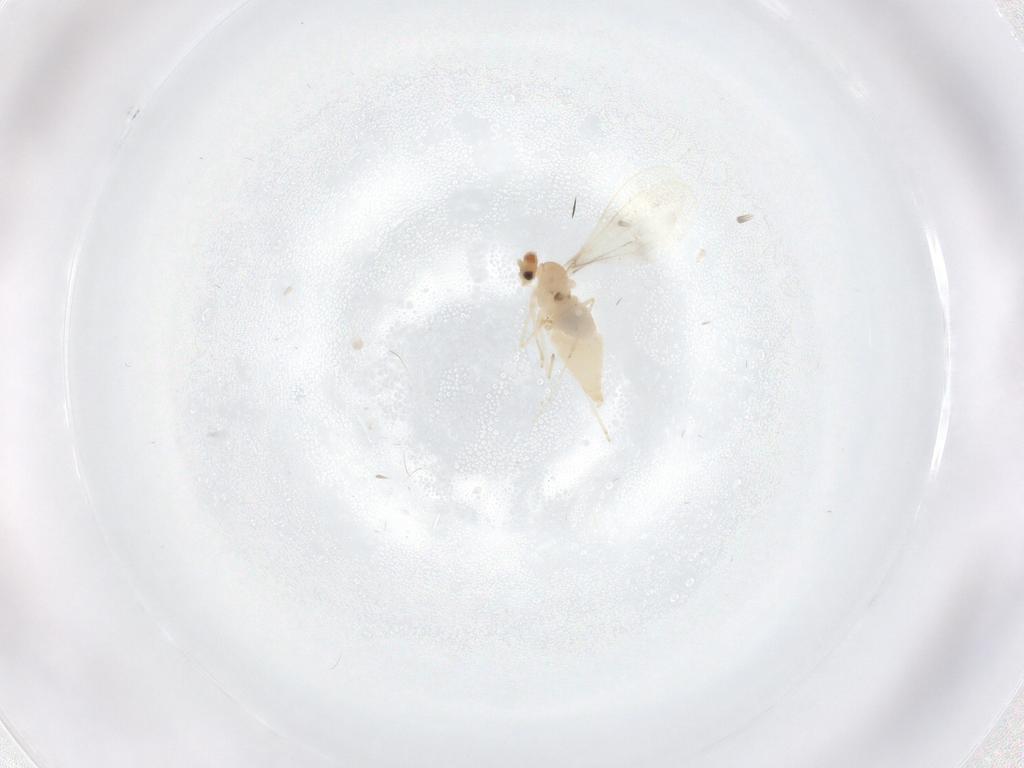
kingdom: Animalia
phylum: Arthropoda
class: Insecta
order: Diptera
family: Cecidomyiidae
